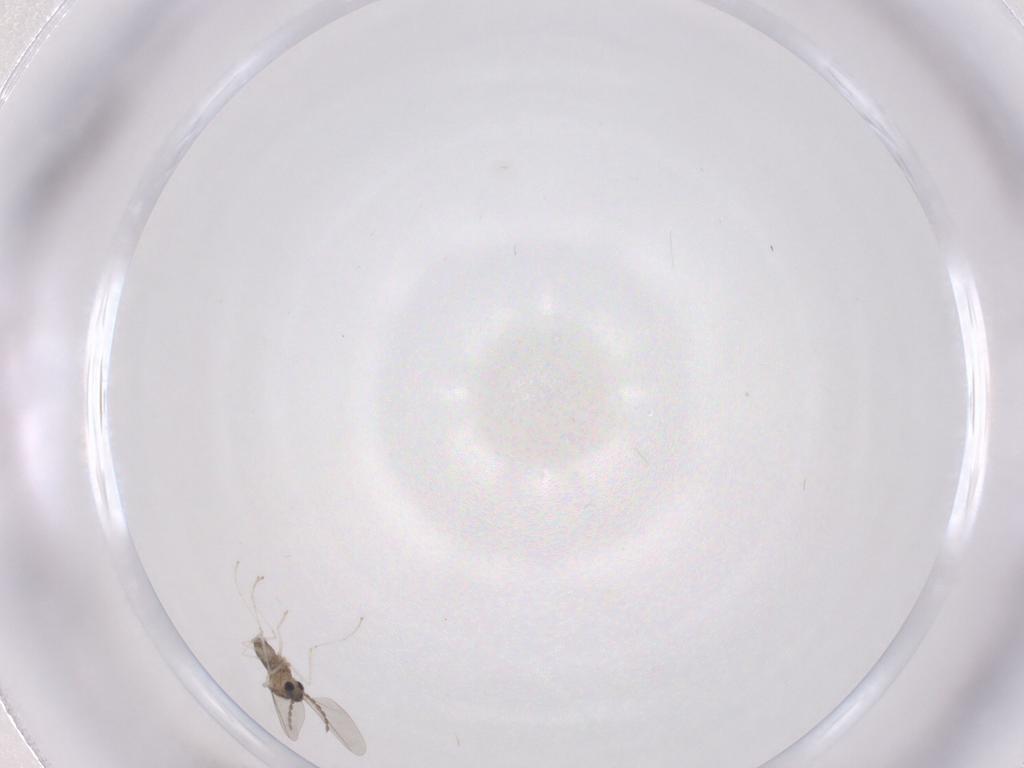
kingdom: Animalia
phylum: Arthropoda
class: Insecta
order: Diptera
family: Cecidomyiidae
